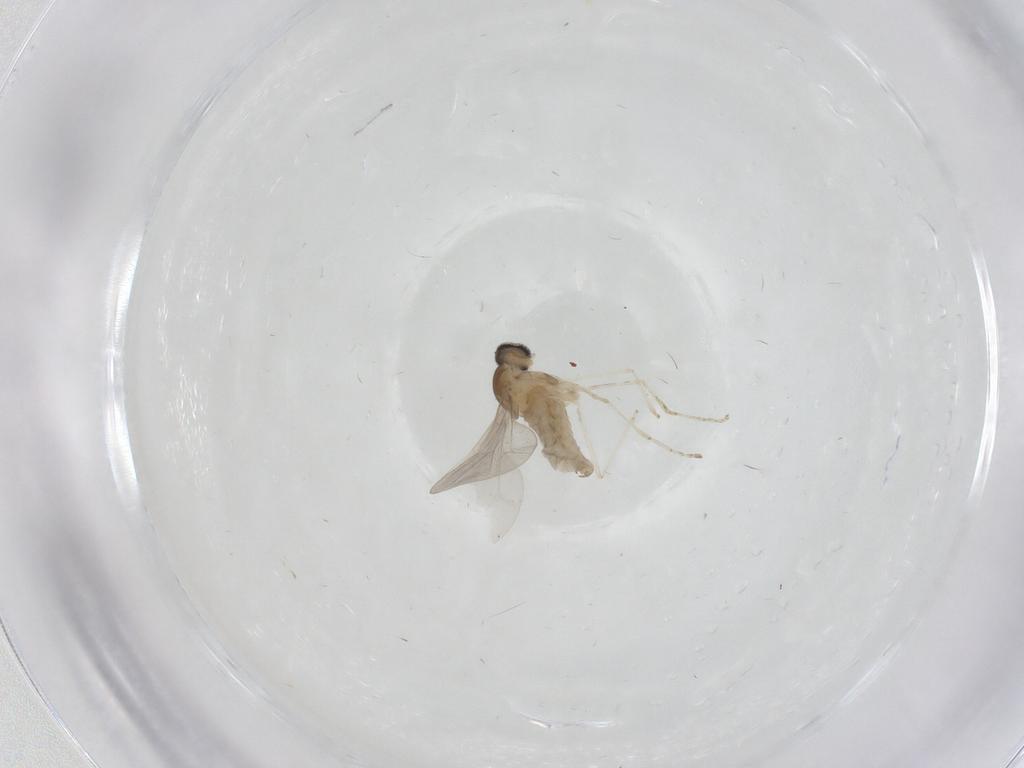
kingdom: Animalia
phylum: Arthropoda
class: Insecta
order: Diptera
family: Cecidomyiidae
